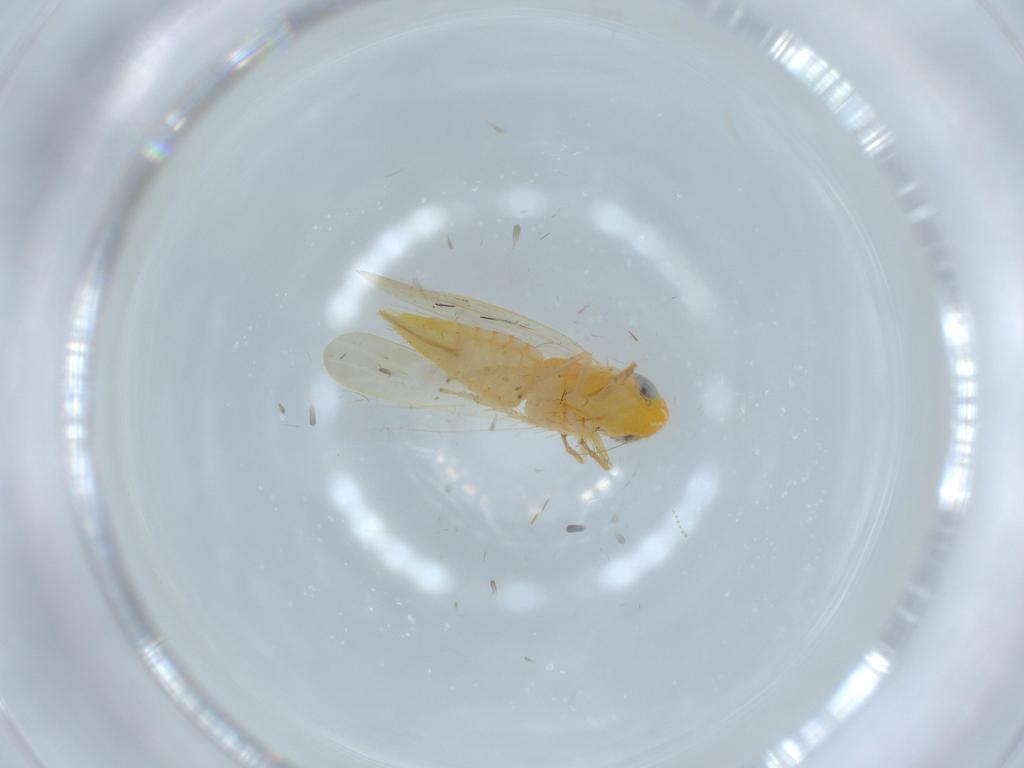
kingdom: Animalia
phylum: Arthropoda
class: Insecta
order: Hemiptera
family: Cicadellidae
